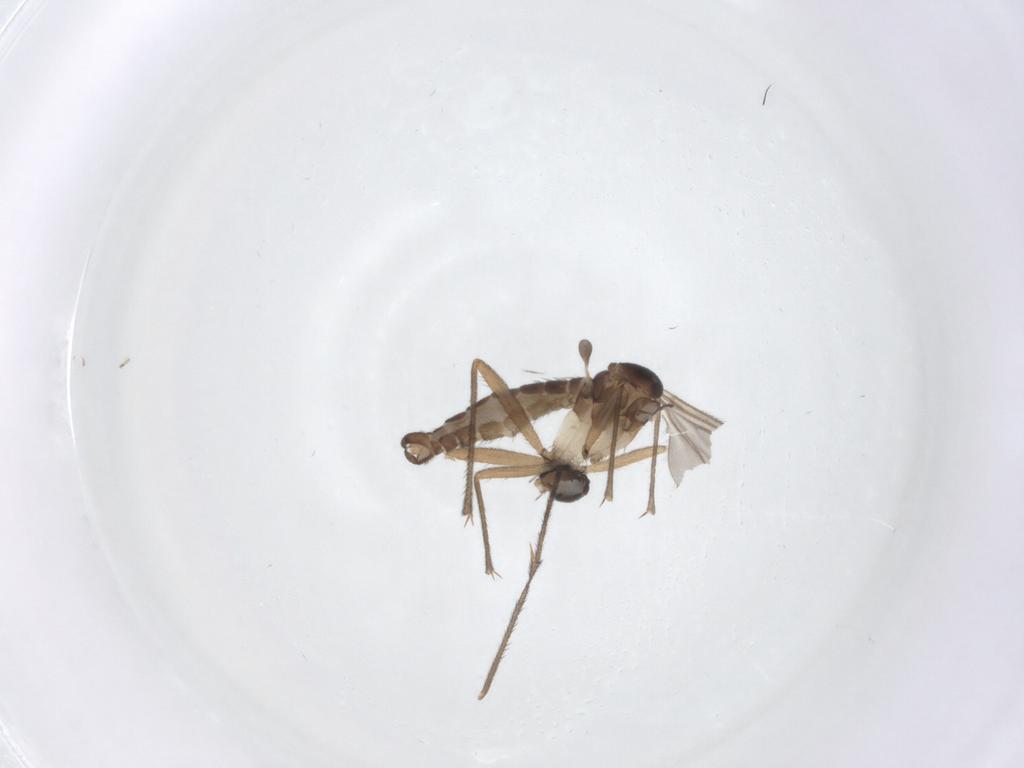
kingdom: Animalia
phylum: Arthropoda
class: Insecta
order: Diptera
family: Sciaridae
